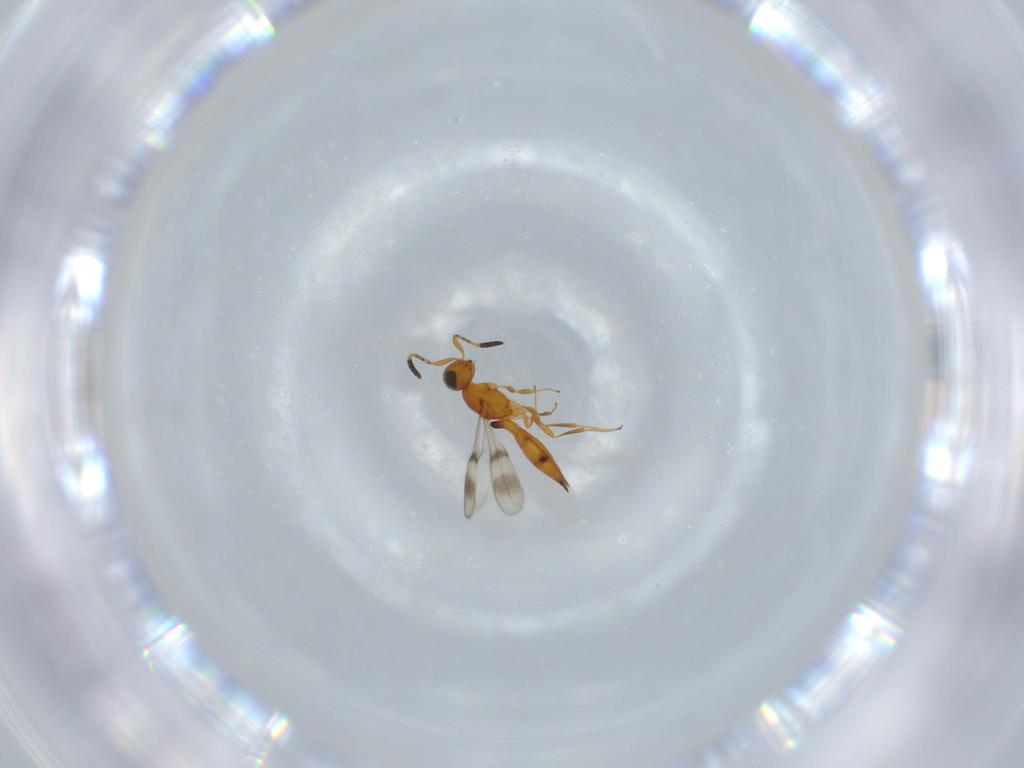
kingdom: Animalia
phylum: Arthropoda
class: Insecta
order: Hymenoptera
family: Scelionidae
